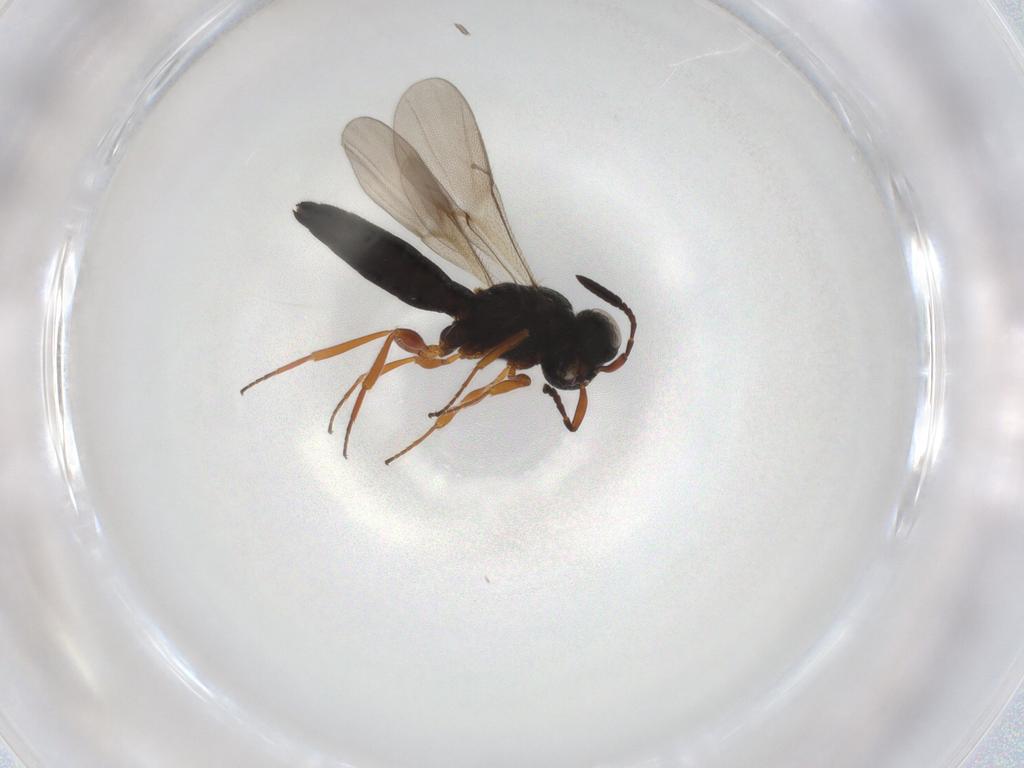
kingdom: Animalia
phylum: Arthropoda
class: Insecta
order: Hymenoptera
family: Scelionidae
